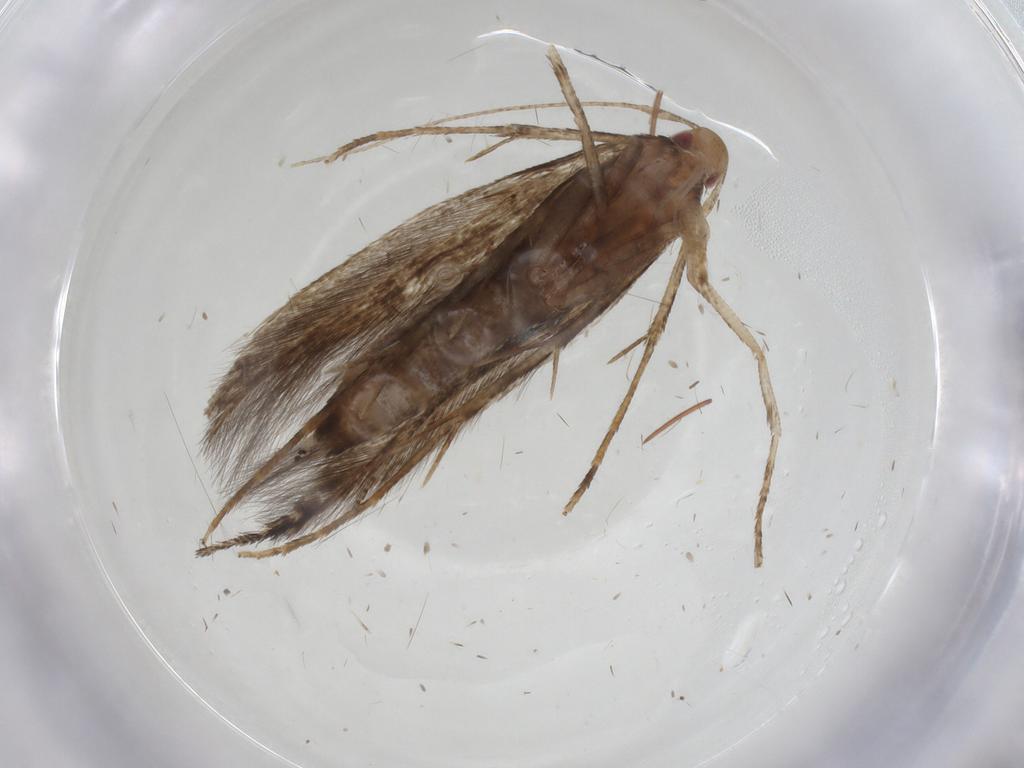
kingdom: Animalia
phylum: Arthropoda
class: Insecta
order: Lepidoptera
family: Cosmopterigidae
